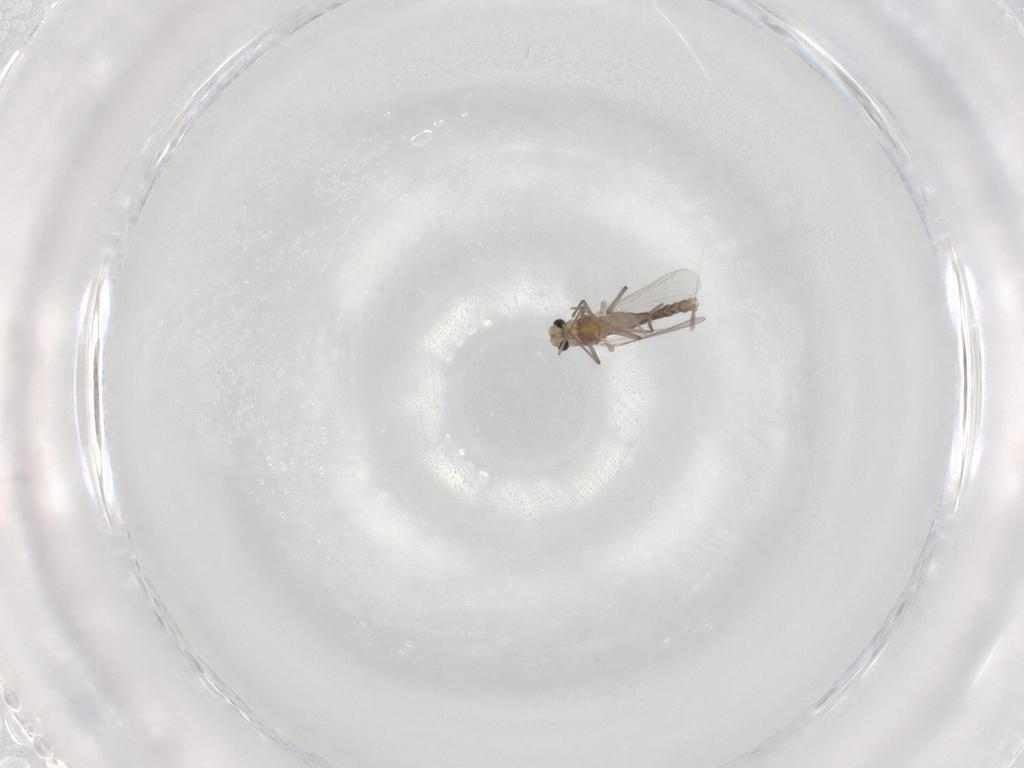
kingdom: Animalia
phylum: Arthropoda
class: Insecta
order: Diptera
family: Chironomidae
